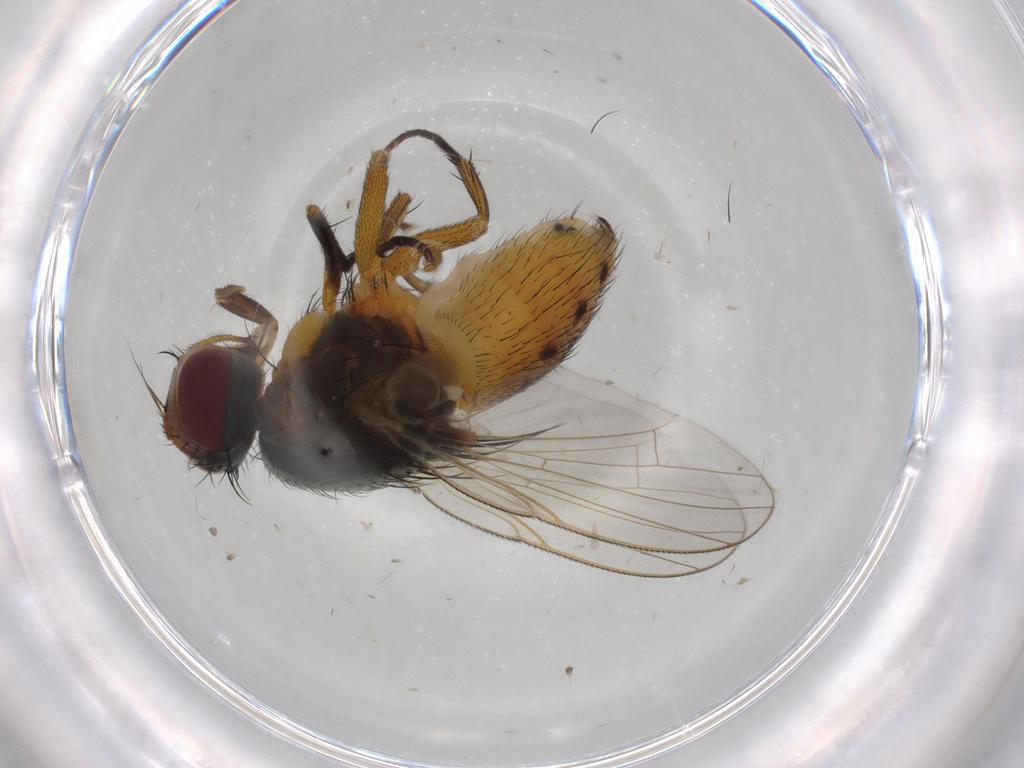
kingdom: Animalia
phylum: Arthropoda
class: Insecta
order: Diptera
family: Muscidae
